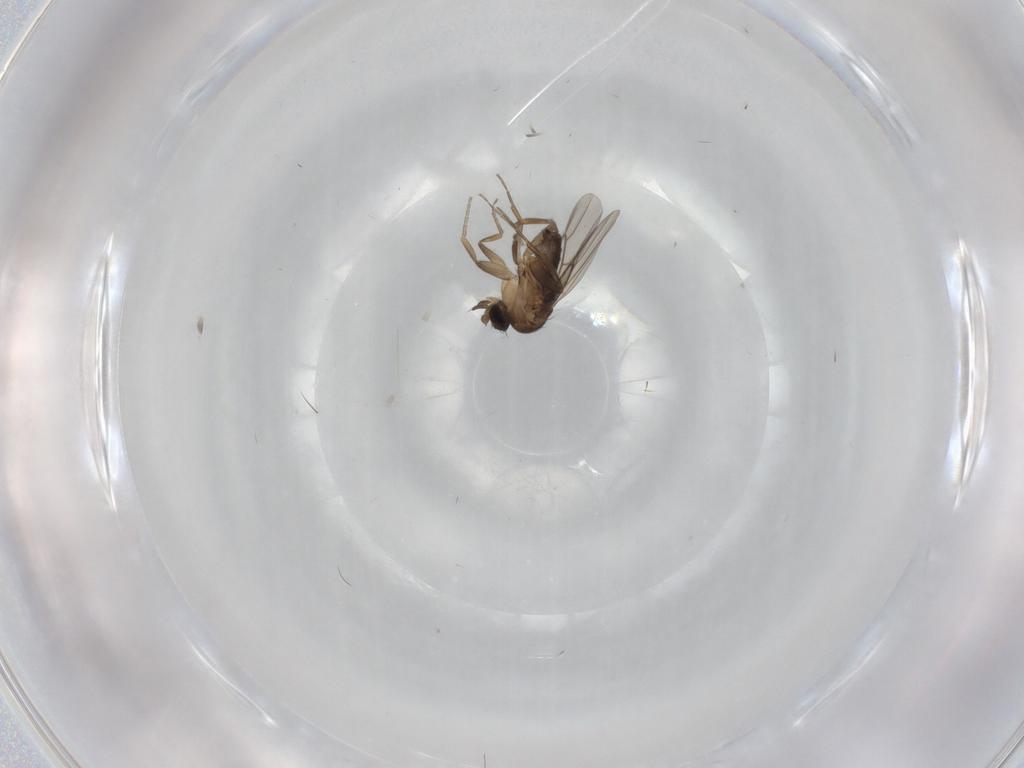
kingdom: Animalia
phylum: Arthropoda
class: Insecta
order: Diptera
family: Phoridae
